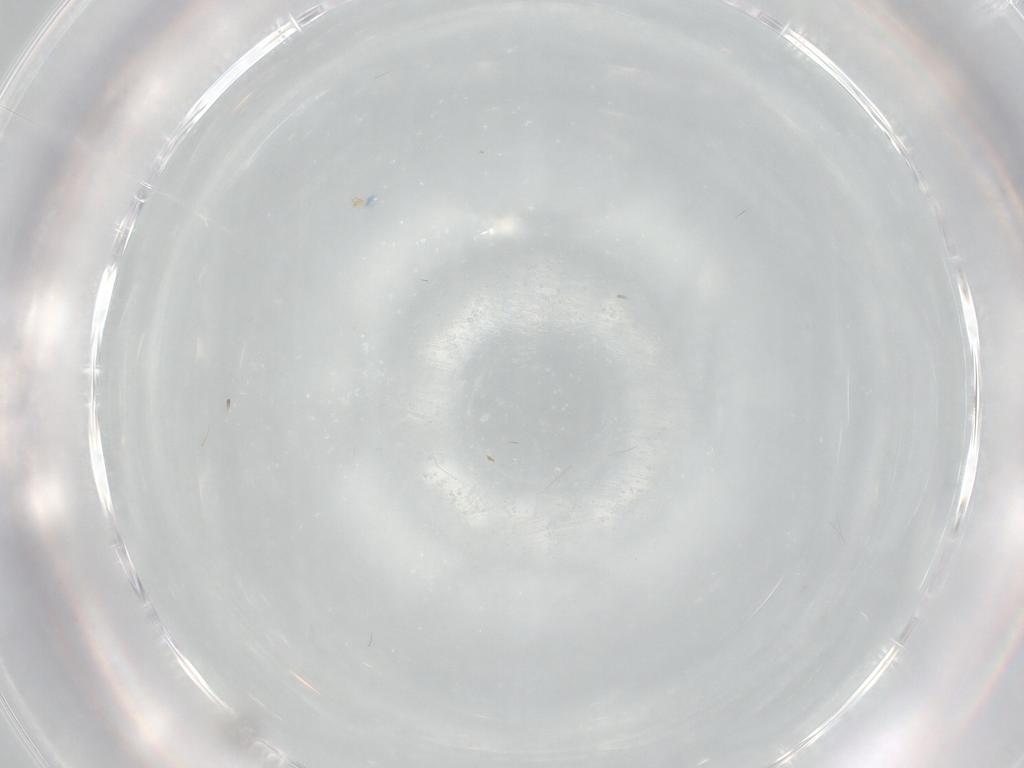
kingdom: Animalia
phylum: Arthropoda
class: Insecta
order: Diptera
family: Tipulidae
